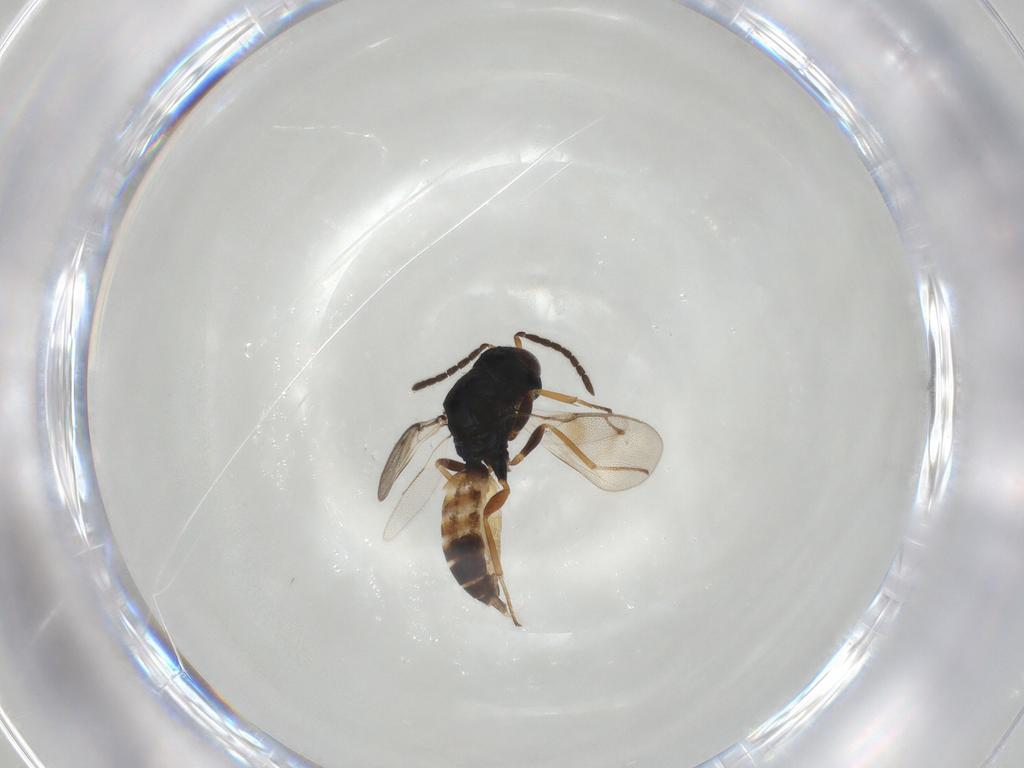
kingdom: Animalia
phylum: Arthropoda
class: Insecta
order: Hymenoptera
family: Pteromalidae
